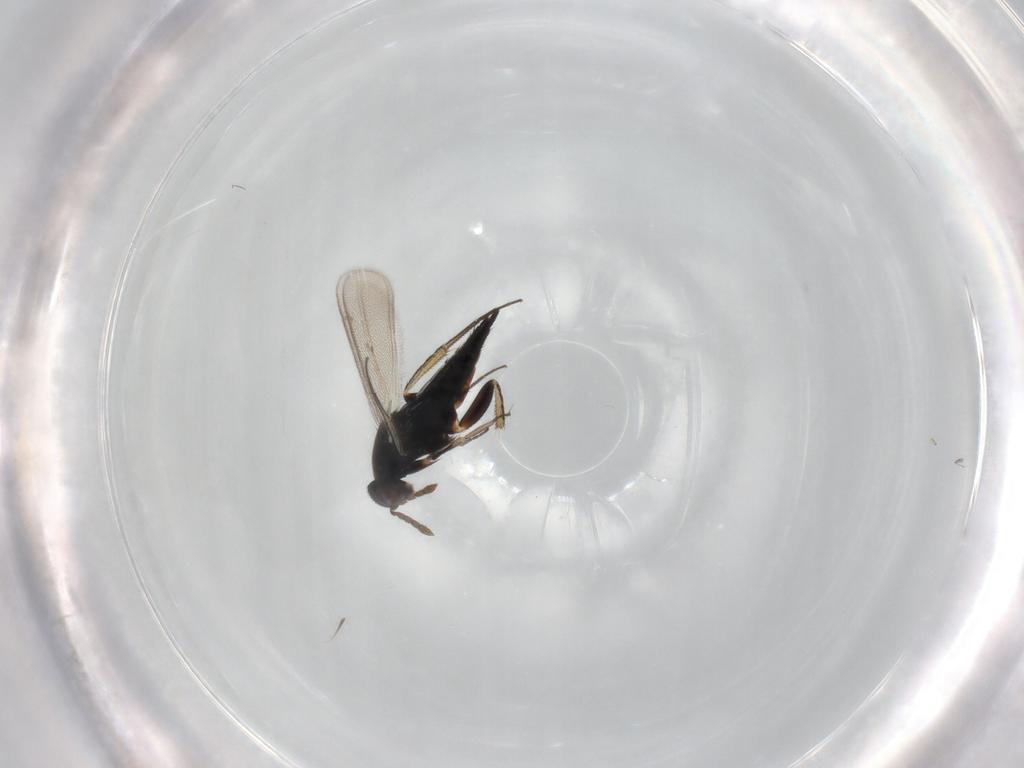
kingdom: Animalia
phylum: Arthropoda
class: Insecta
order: Hymenoptera
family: Eulophidae
